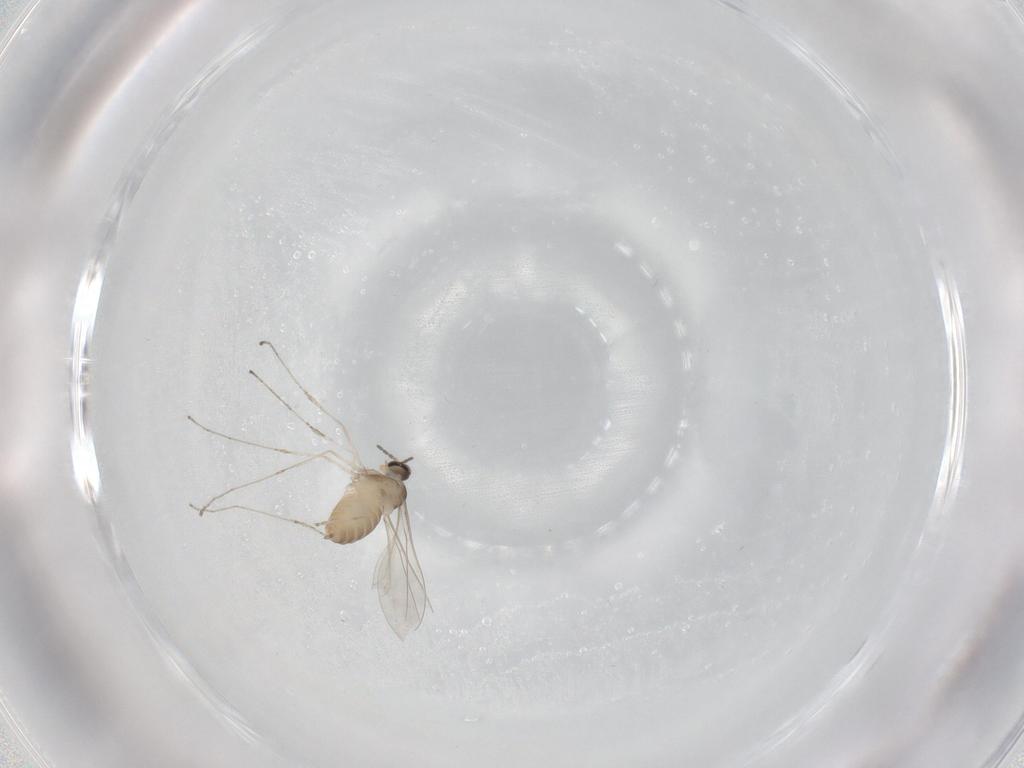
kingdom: Animalia
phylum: Arthropoda
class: Insecta
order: Diptera
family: Cecidomyiidae
